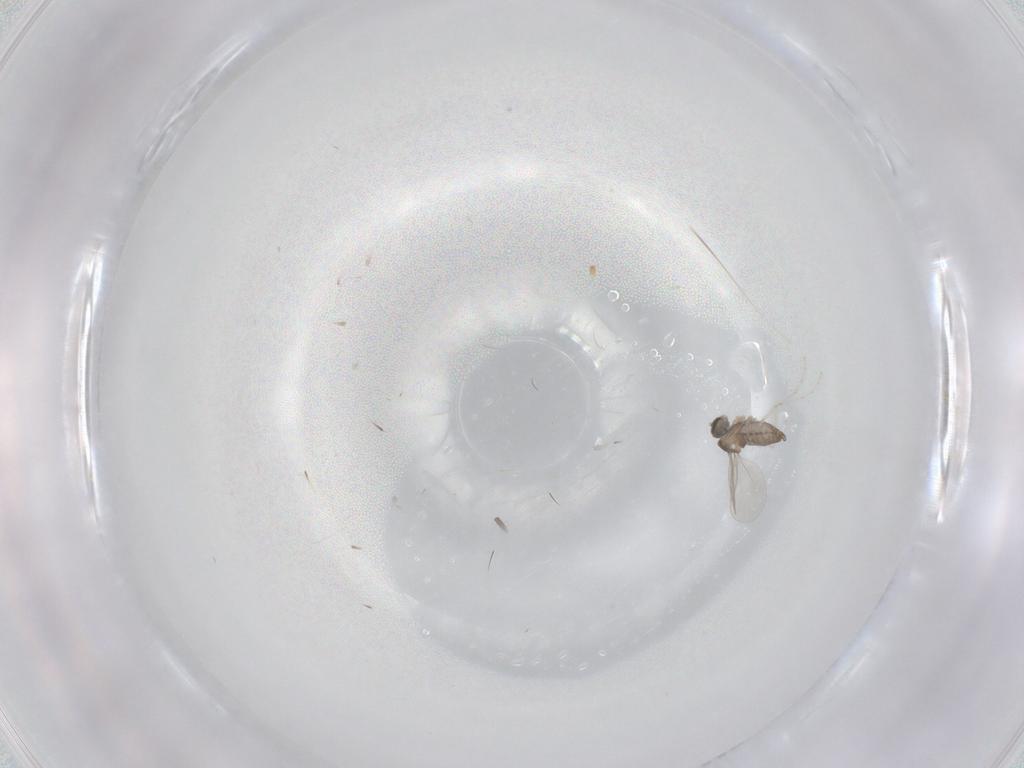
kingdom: Animalia
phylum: Arthropoda
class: Insecta
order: Diptera
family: Cecidomyiidae
